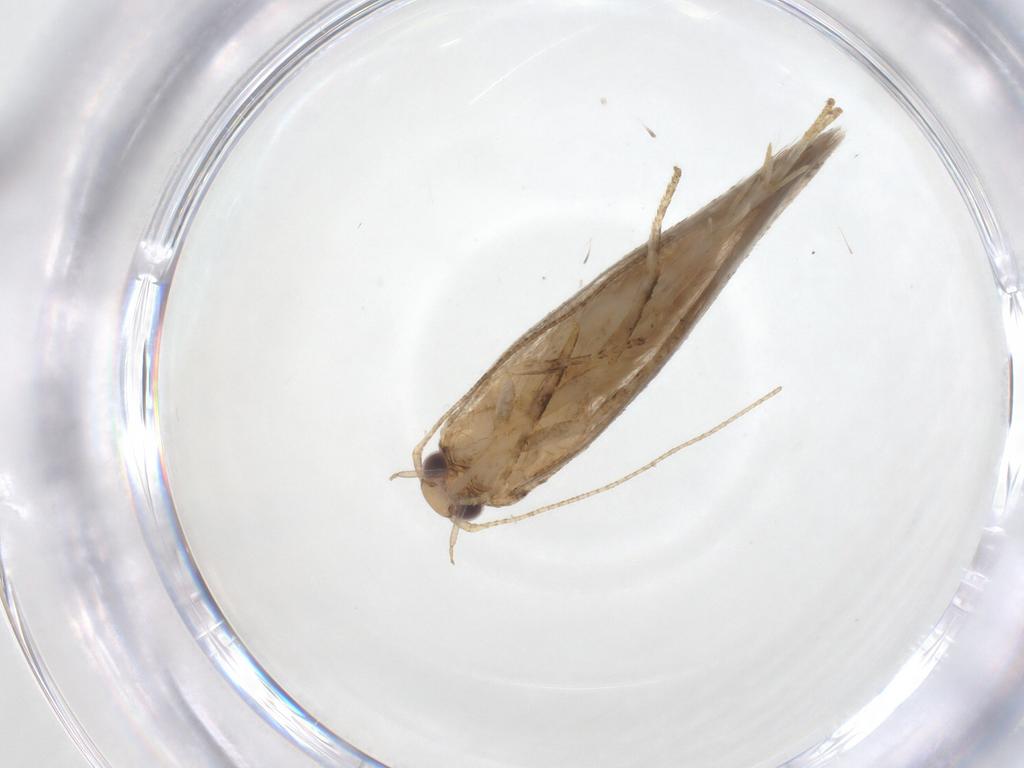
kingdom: Animalia
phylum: Arthropoda
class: Insecta
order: Lepidoptera
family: Gelechiidae
